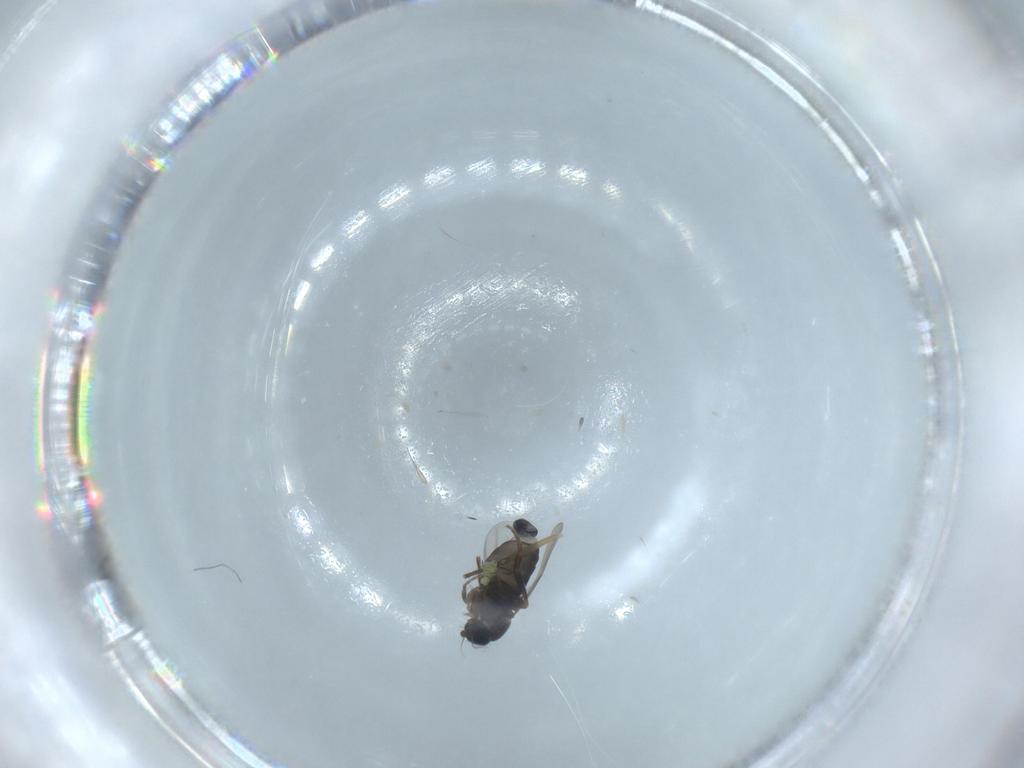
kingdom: Animalia
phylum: Arthropoda
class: Insecta
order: Diptera
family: Phoridae
